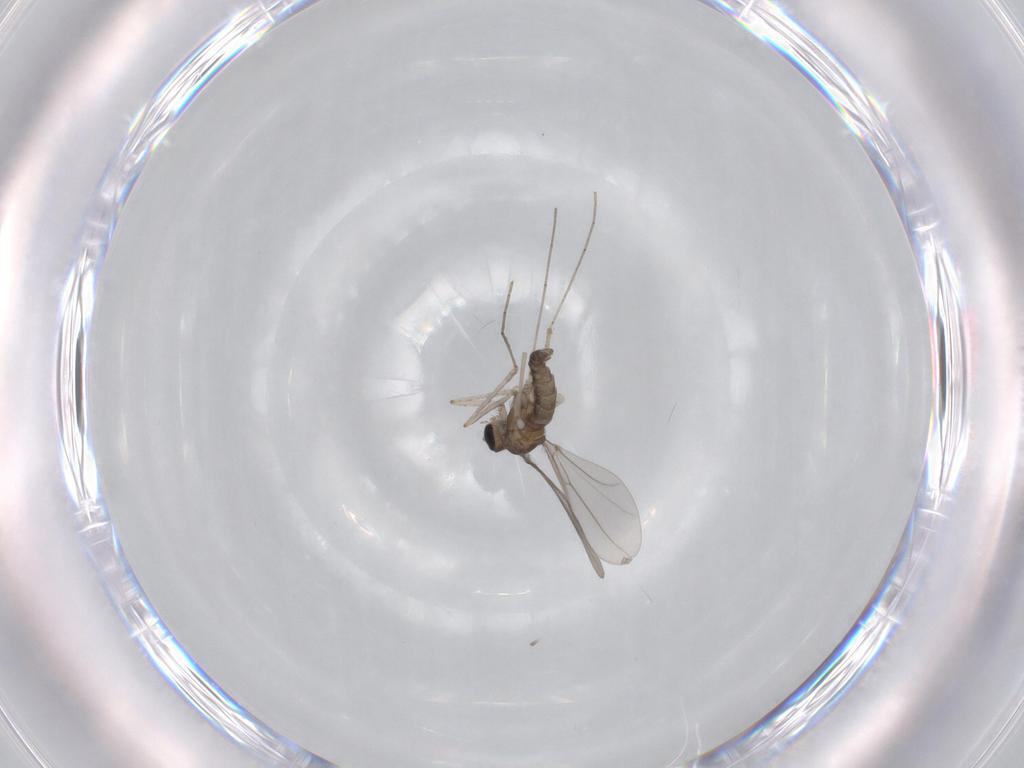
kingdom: Animalia
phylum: Arthropoda
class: Insecta
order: Diptera
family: Cecidomyiidae
